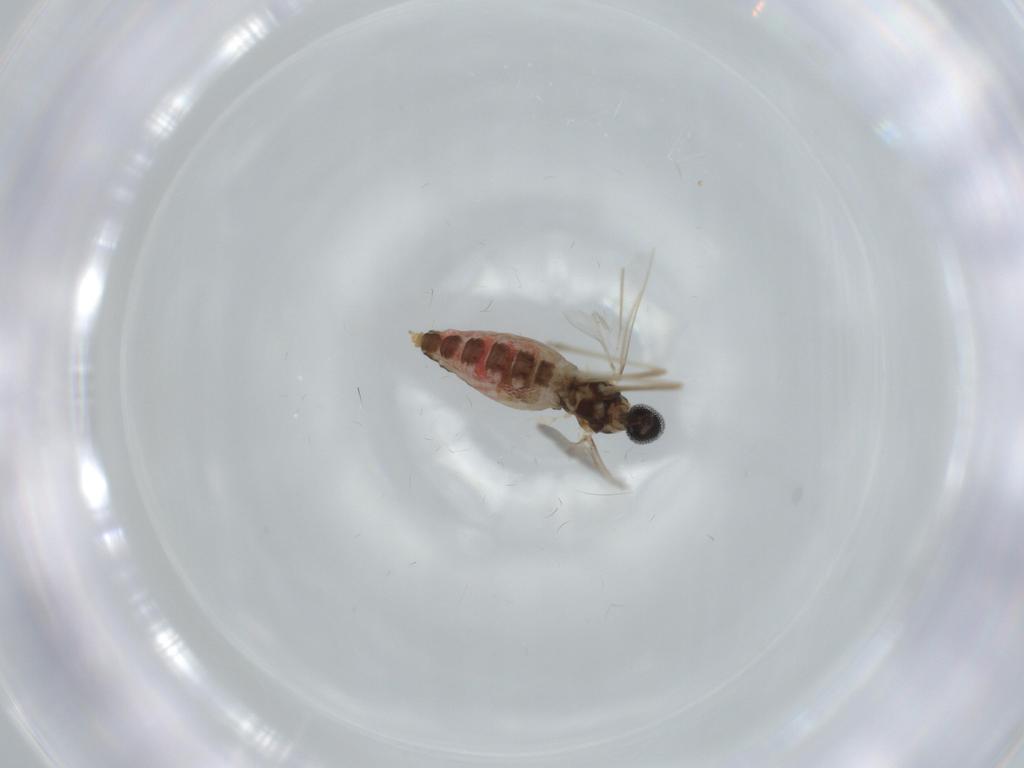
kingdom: Animalia
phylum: Arthropoda
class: Insecta
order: Diptera
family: Cecidomyiidae
